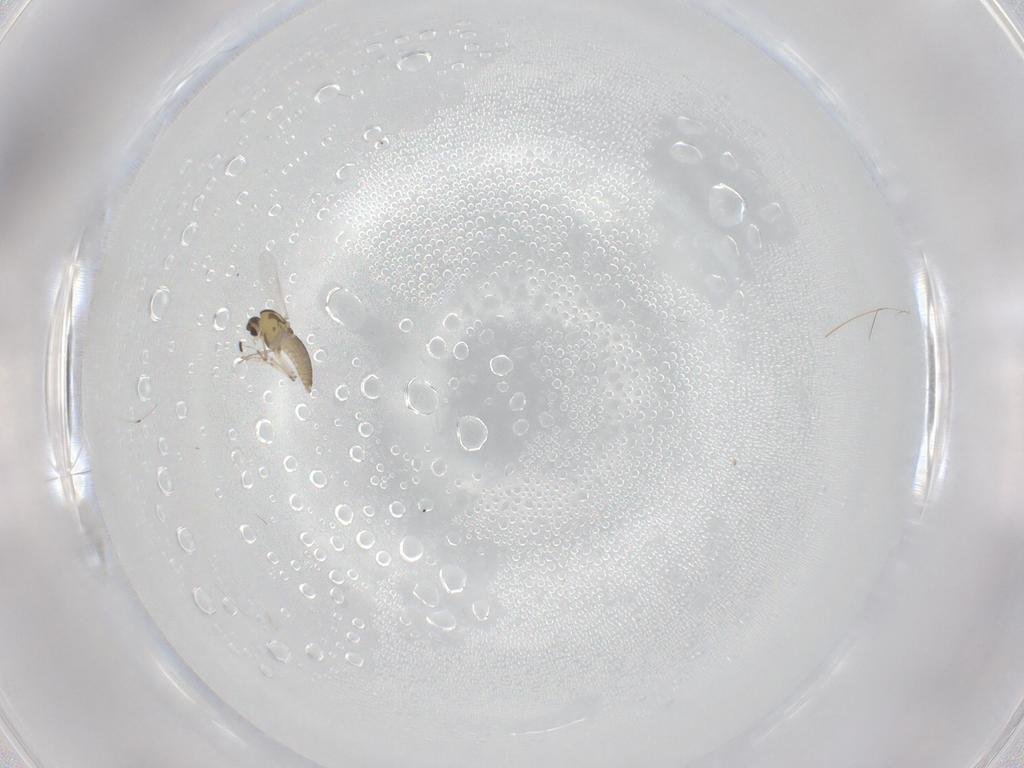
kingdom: Animalia
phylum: Arthropoda
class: Insecta
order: Diptera
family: Chironomidae
